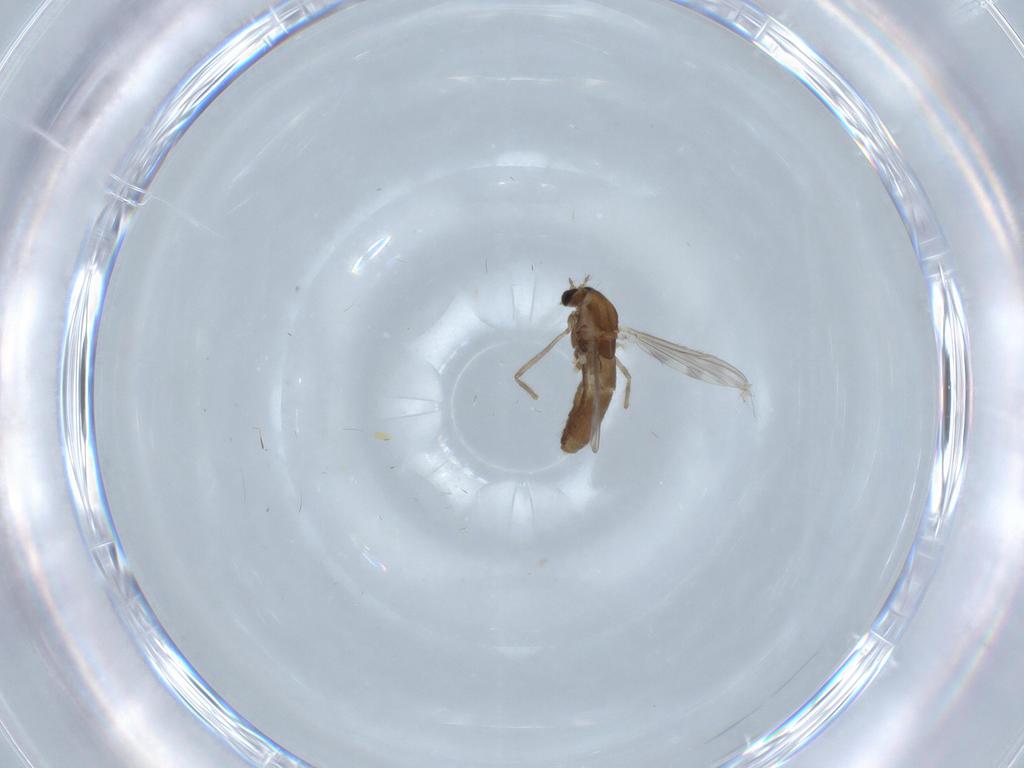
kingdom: Animalia
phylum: Arthropoda
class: Insecta
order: Diptera
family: Chironomidae
